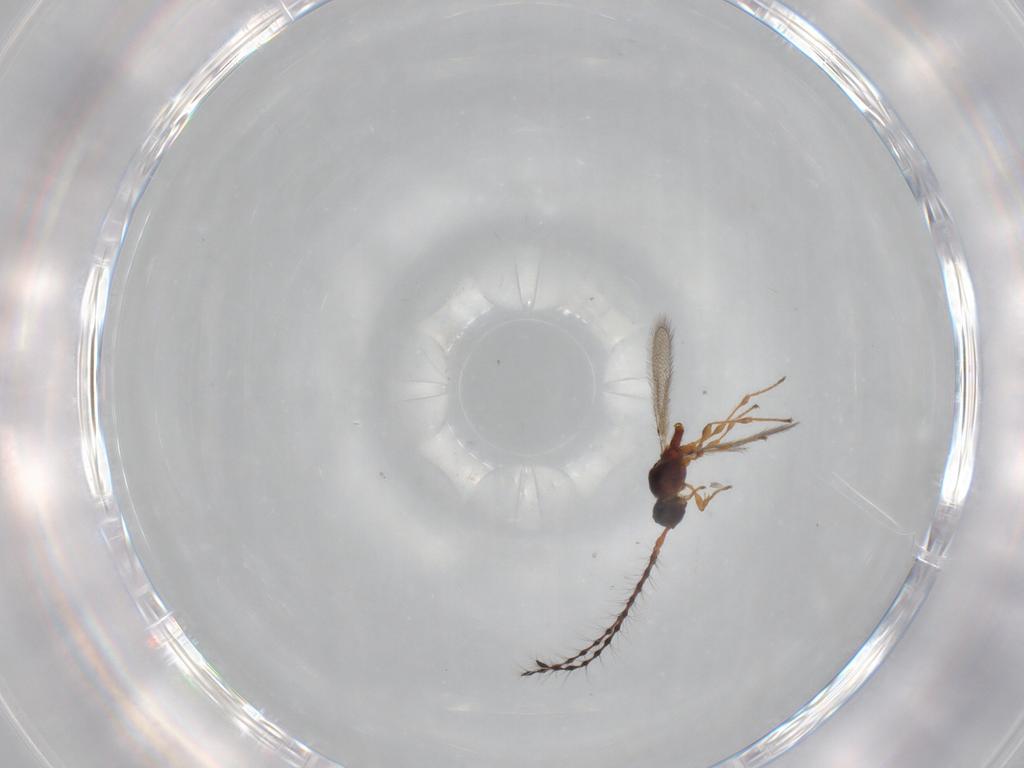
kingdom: Animalia
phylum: Arthropoda
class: Insecta
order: Hymenoptera
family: Diapriidae
